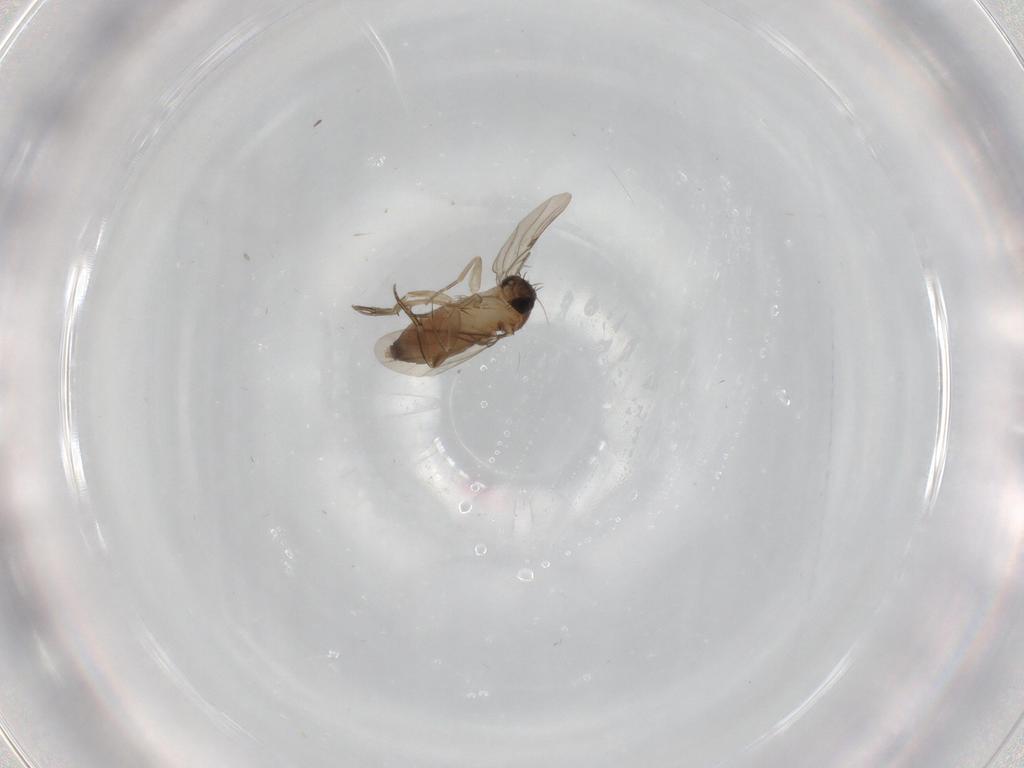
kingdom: Animalia
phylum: Arthropoda
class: Insecta
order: Diptera
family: Phoridae
